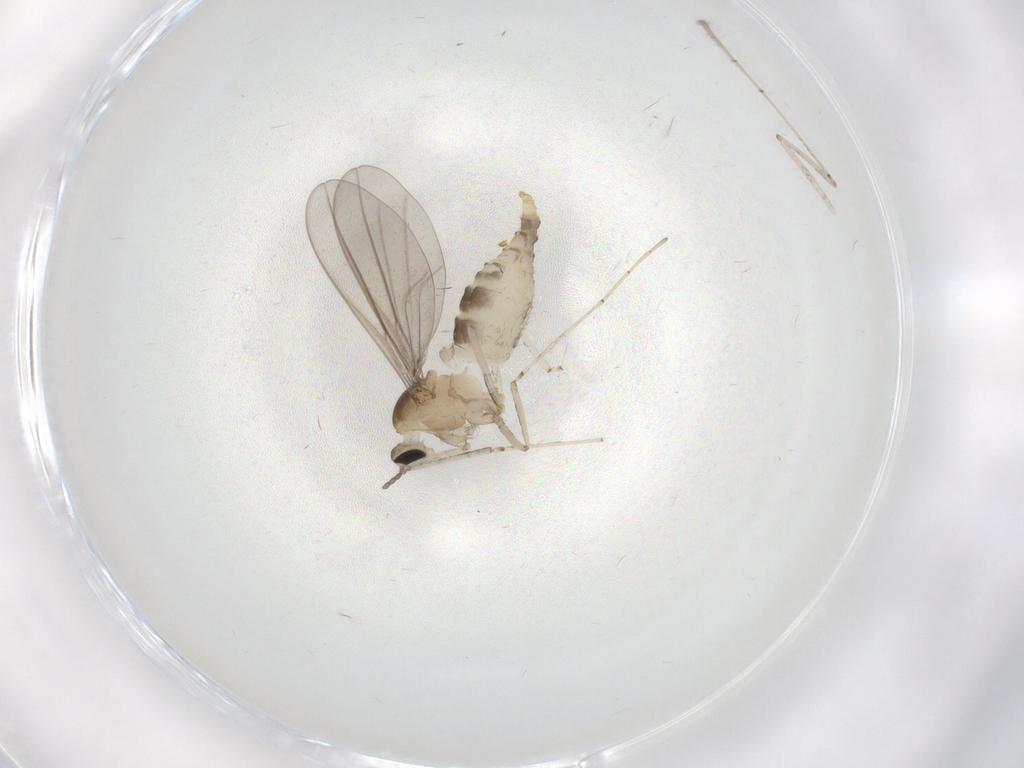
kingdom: Animalia
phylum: Arthropoda
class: Insecta
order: Diptera
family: Cecidomyiidae
